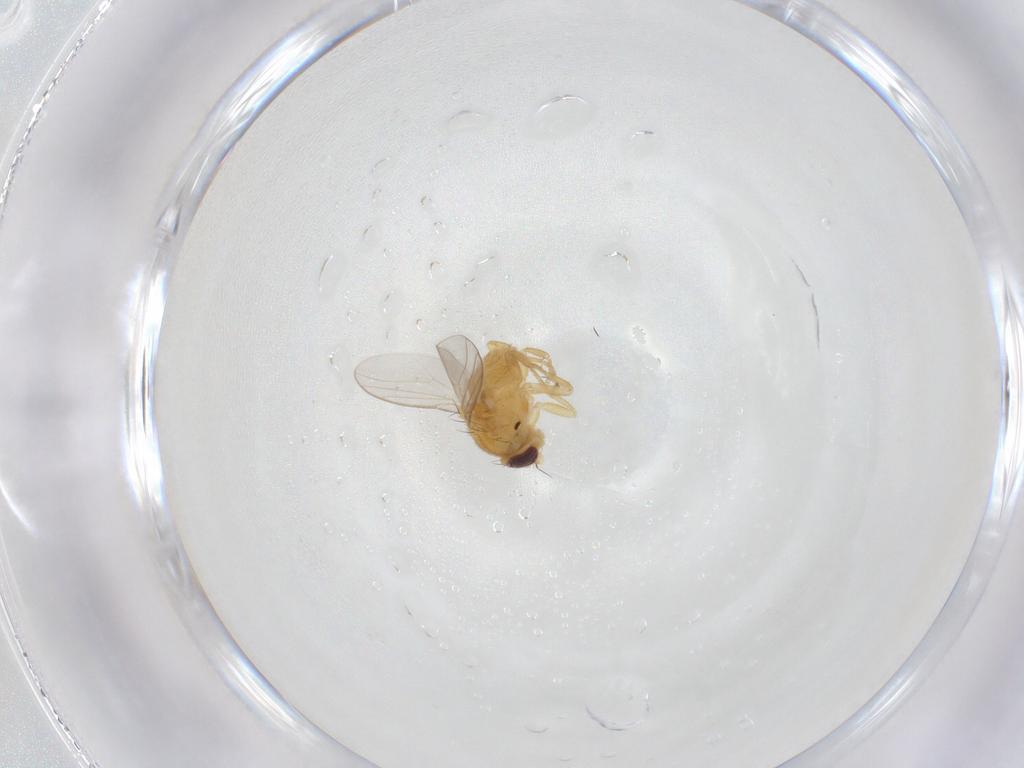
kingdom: Animalia
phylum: Arthropoda
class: Insecta
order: Diptera
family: Chloropidae
